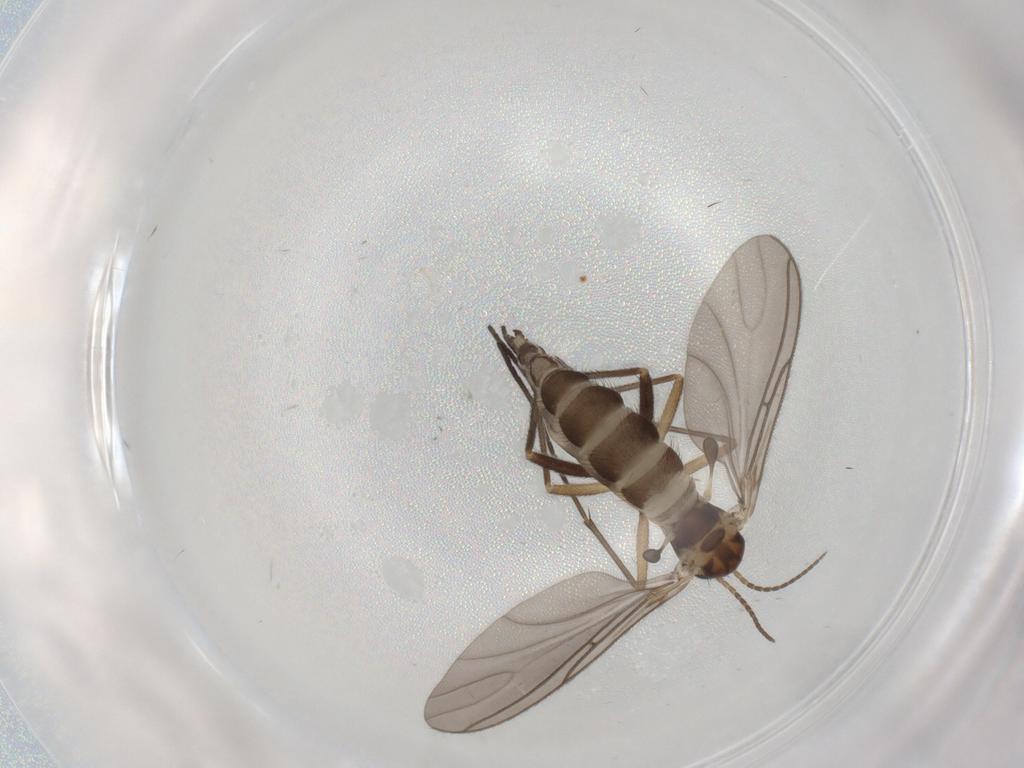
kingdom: Animalia
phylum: Arthropoda
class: Insecta
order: Diptera
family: Sciaridae
